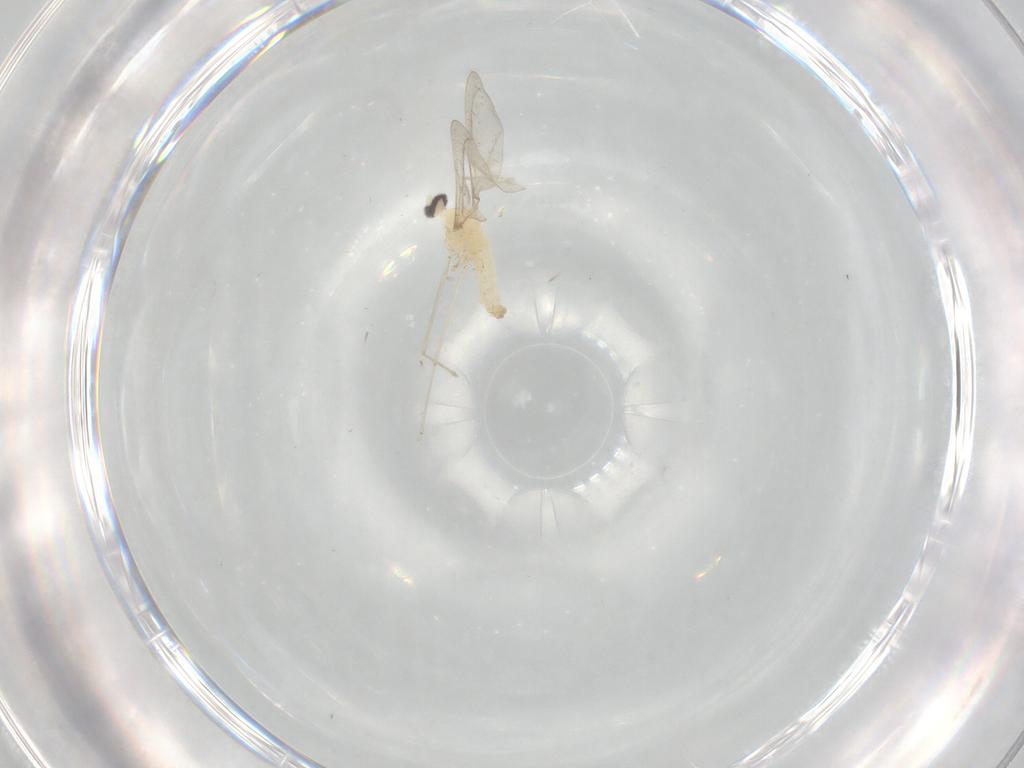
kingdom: Animalia
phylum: Arthropoda
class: Insecta
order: Diptera
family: Cecidomyiidae
